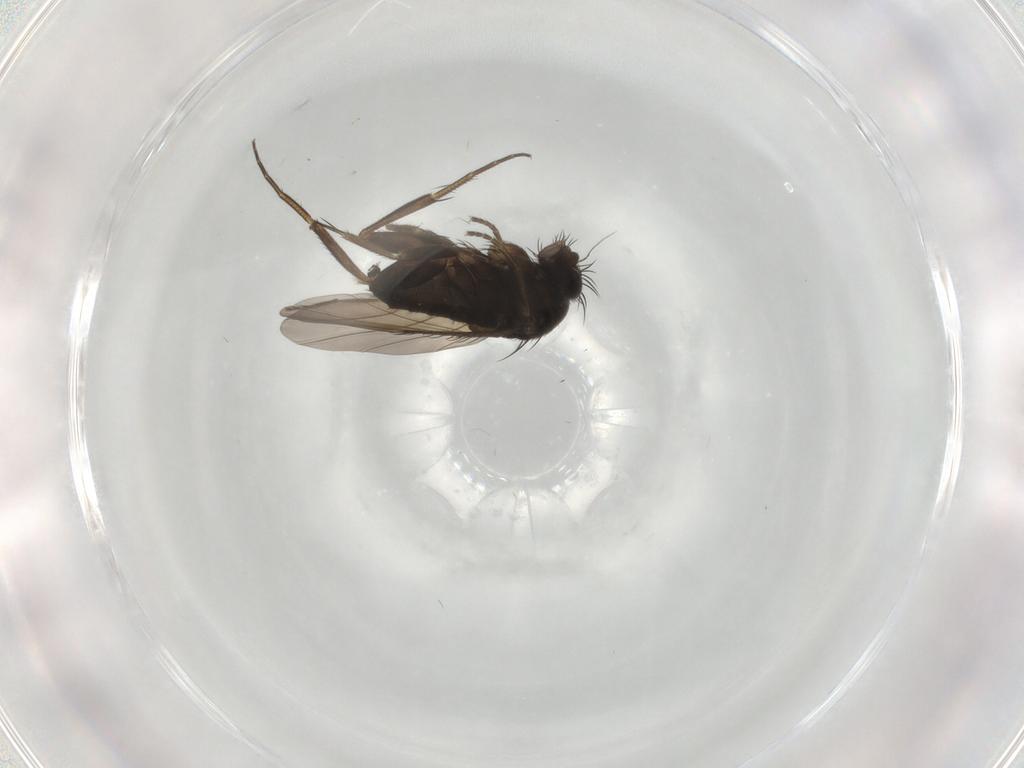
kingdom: Animalia
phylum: Arthropoda
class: Insecta
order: Diptera
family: Phoridae
